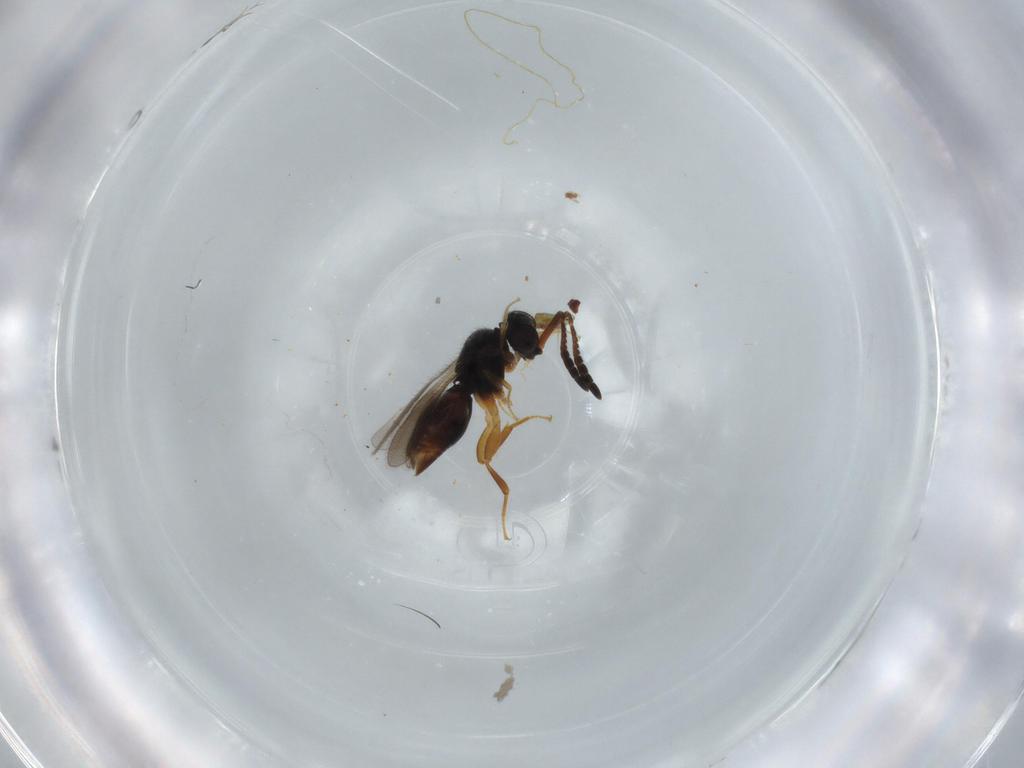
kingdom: Animalia
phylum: Arthropoda
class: Insecta
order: Hymenoptera
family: Ceraphronidae
